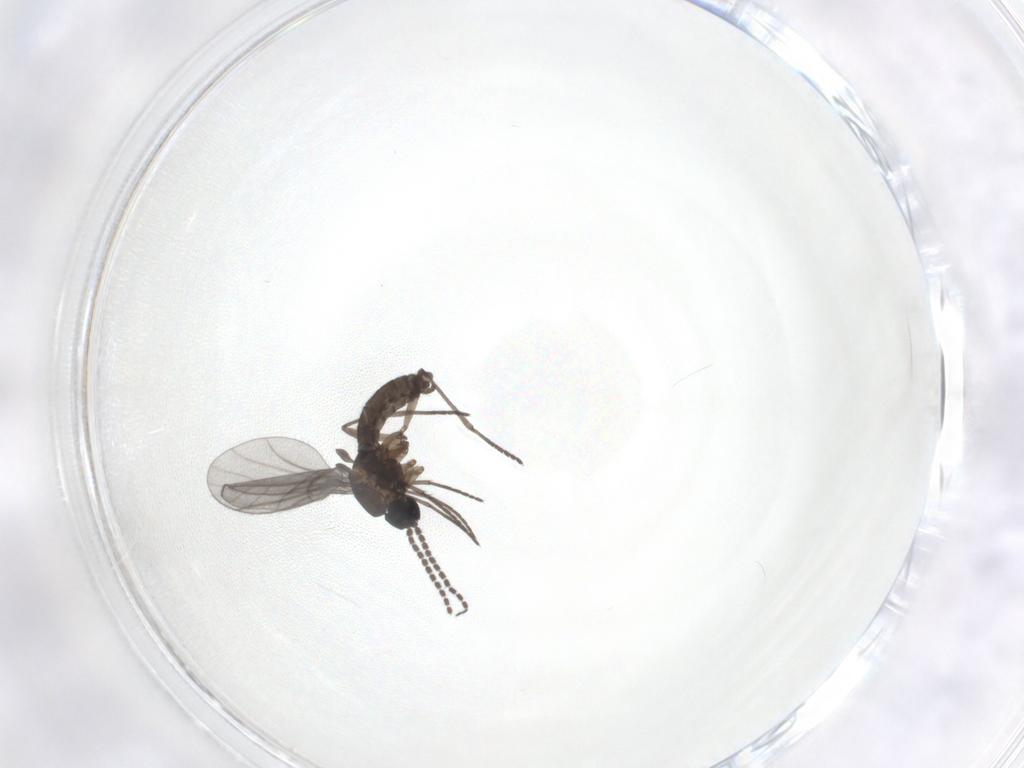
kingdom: Animalia
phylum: Arthropoda
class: Insecta
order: Diptera
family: Sciaridae
